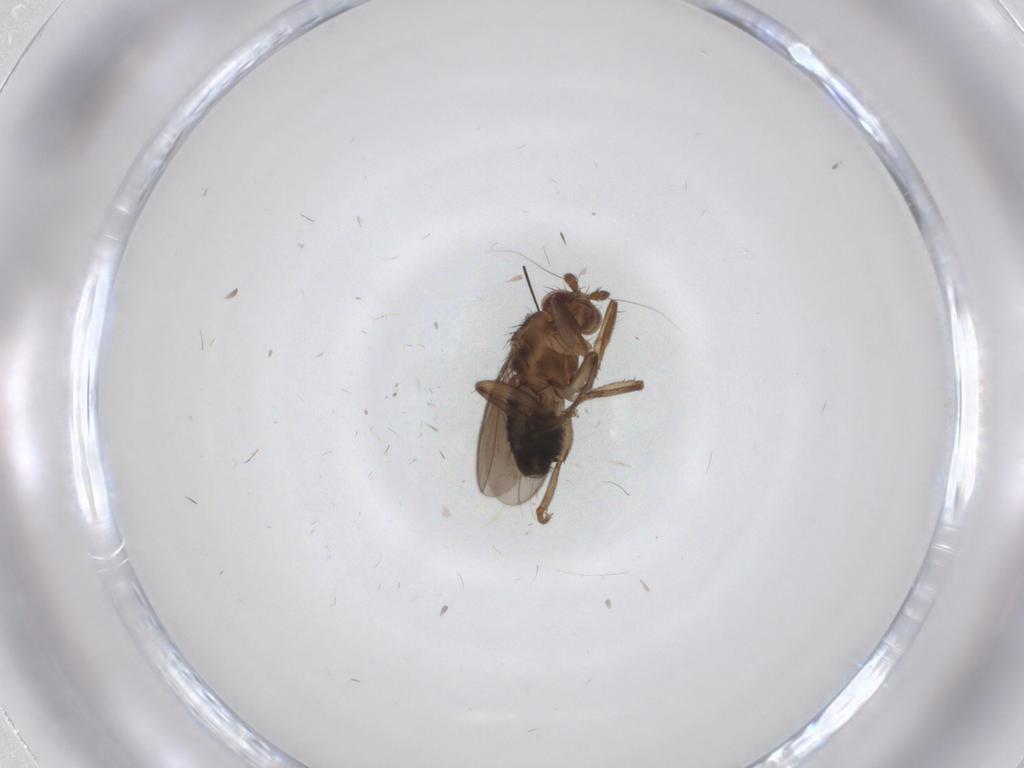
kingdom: Animalia
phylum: Arthropoda
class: Insecta
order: Diptera
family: Sphaeroceridae
